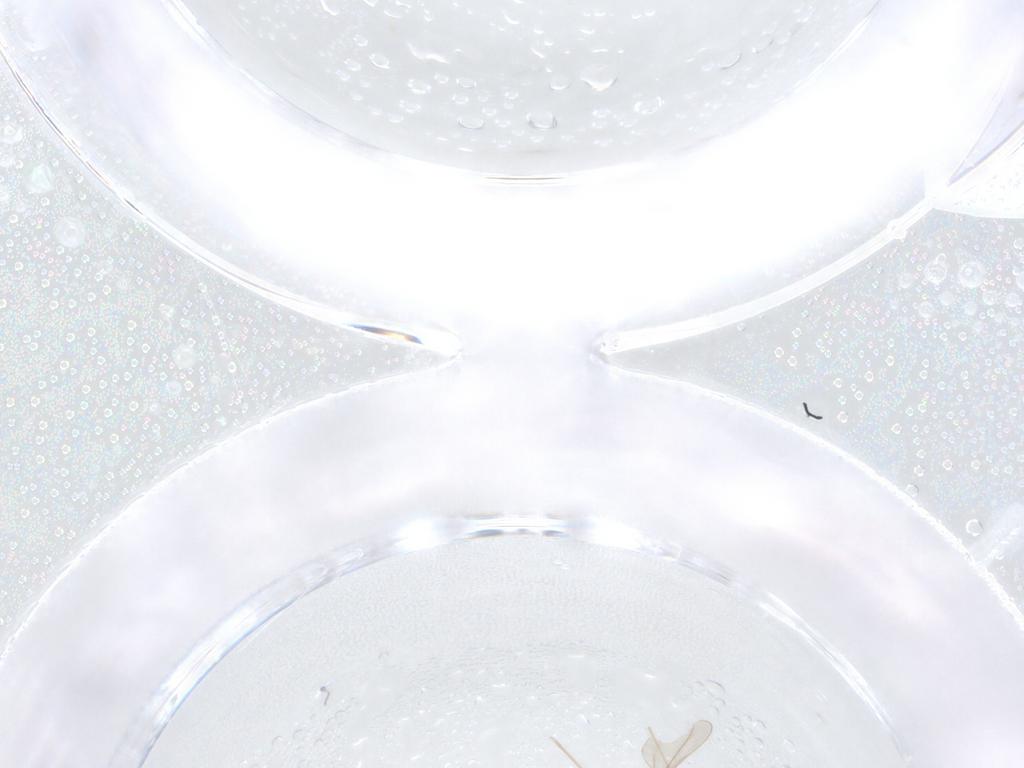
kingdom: Animalia
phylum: Arthropoda
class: Insecta
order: Diptera
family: Cecidomyiidae
